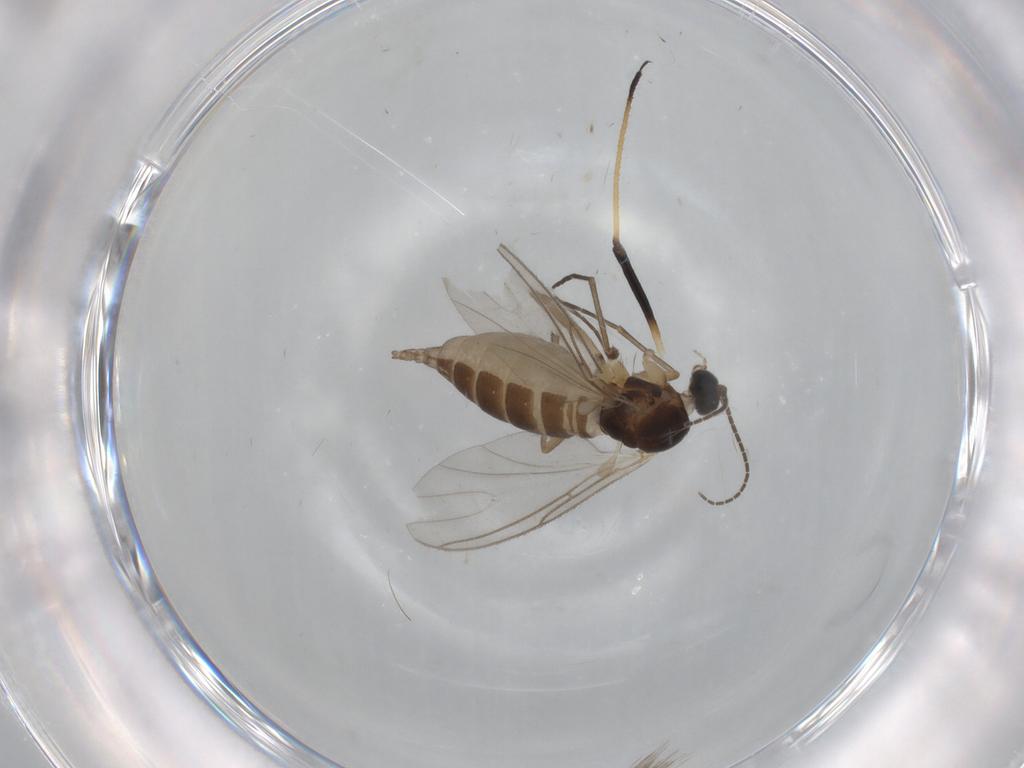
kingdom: Animalia
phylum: Arthropoda
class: Insecta
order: Diptera
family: Sciaridae
